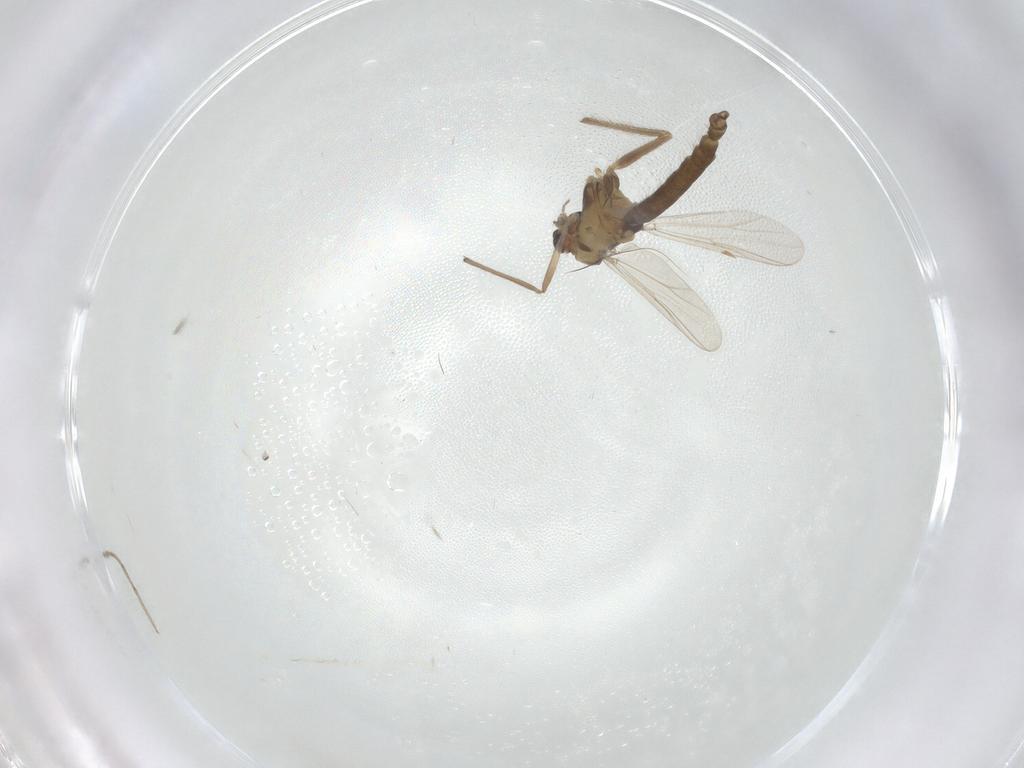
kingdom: Animalia
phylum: Arthropoda
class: Insecta
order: Diptera
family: Chironomidae
